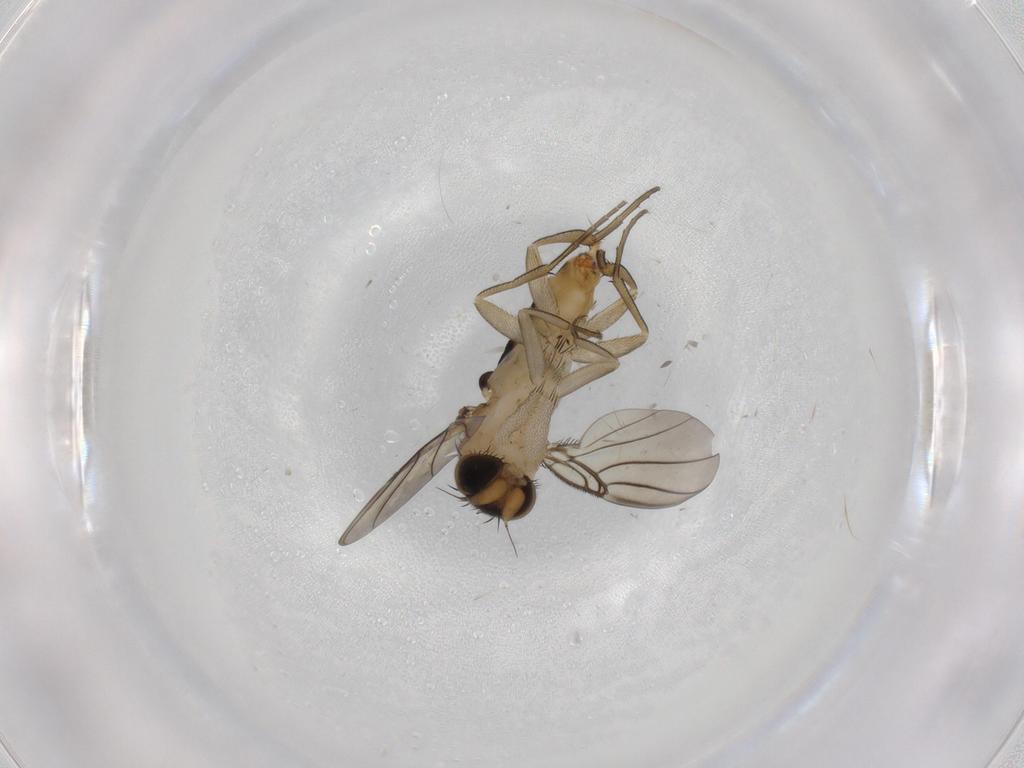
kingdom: Animalia
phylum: Arthropoda
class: Insecta
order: Diptera
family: Phoridae
